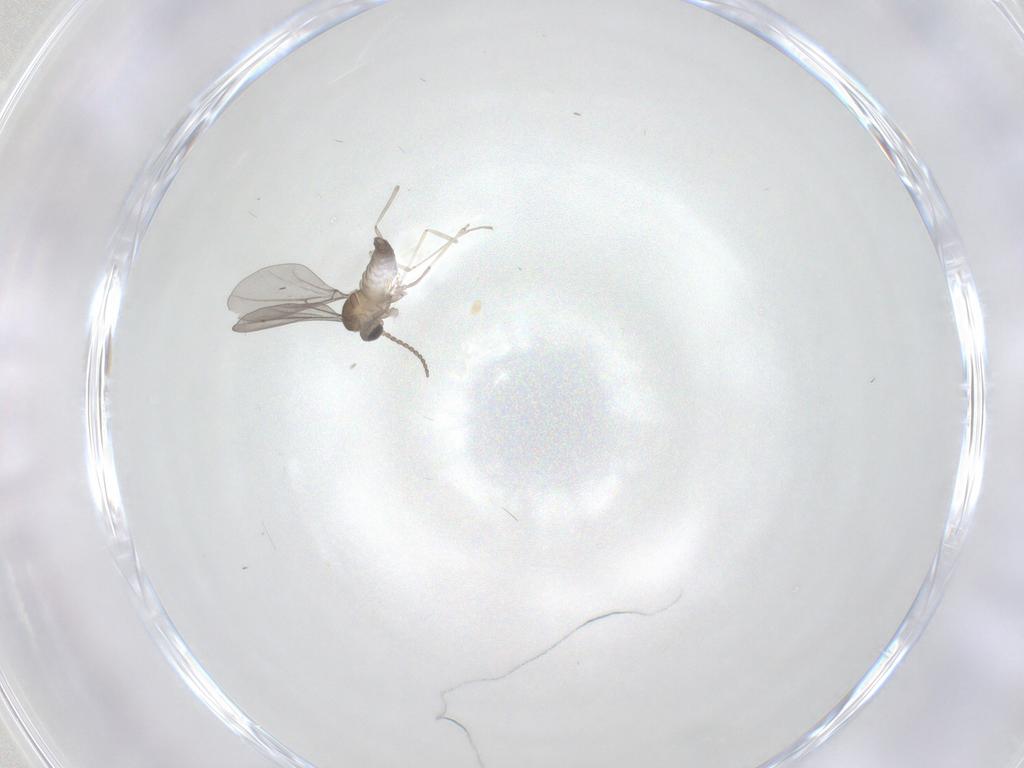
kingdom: Animalia
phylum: Arthropoda
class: Insecta
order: Diptera
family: Cecidomyiidae
